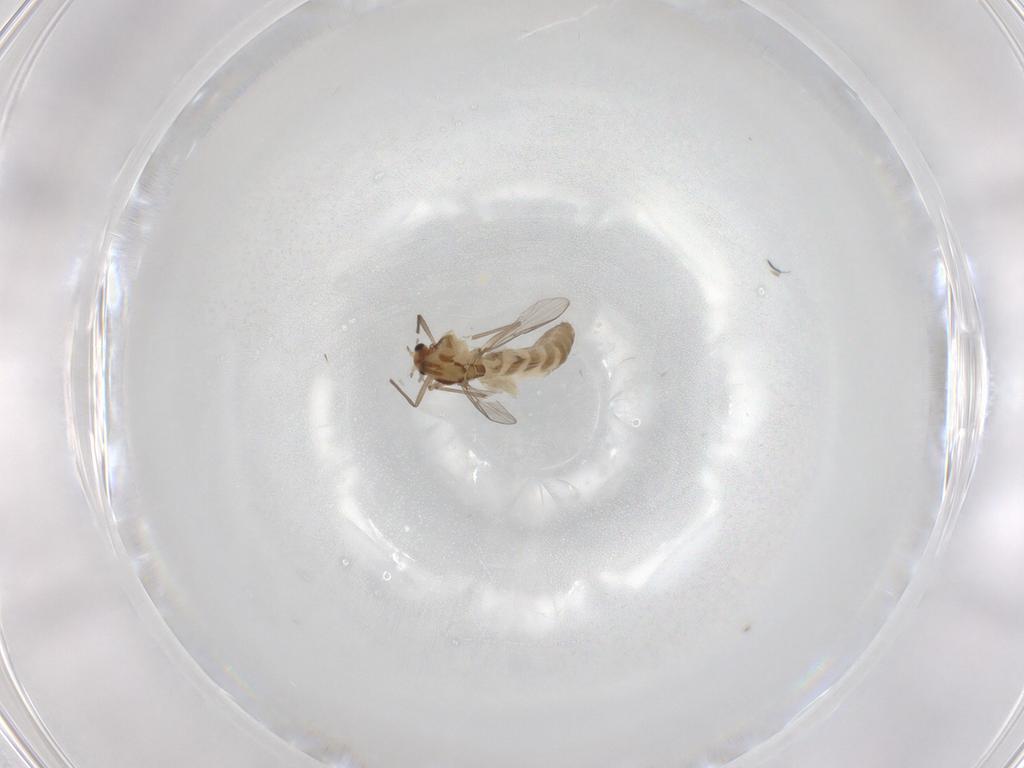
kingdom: Animalia
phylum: Arthropoda
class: Insecta
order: Diptera
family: Chironomidae
